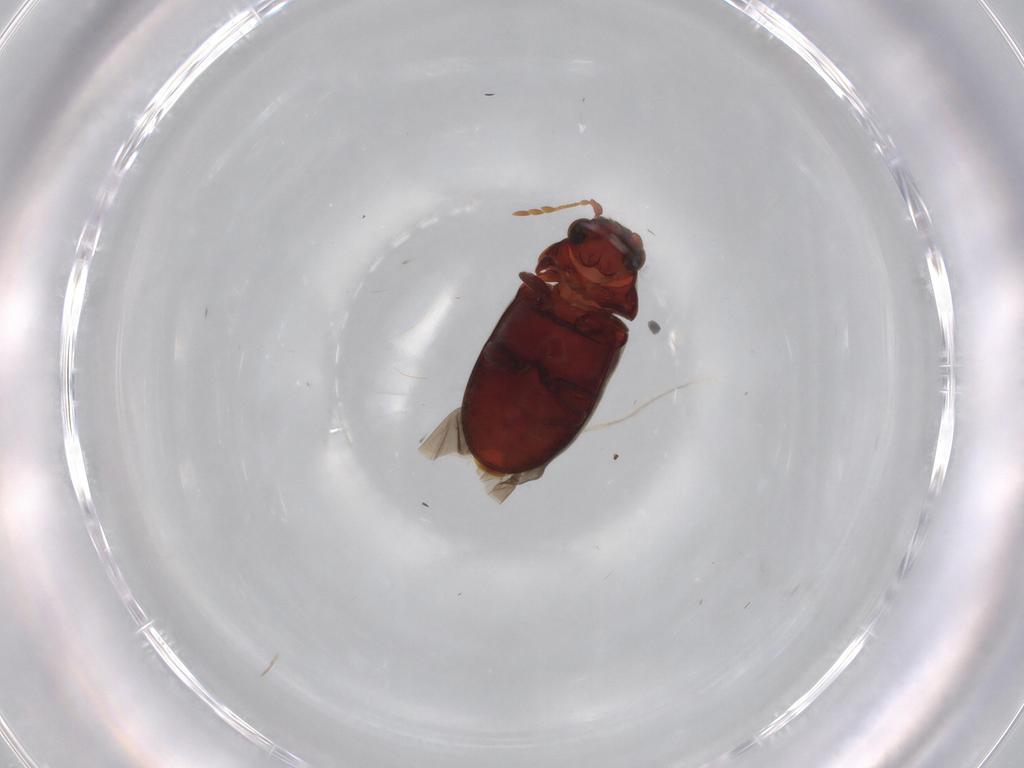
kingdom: Animalia
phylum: Arthropoda
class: Insecta
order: Coleoptera
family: Ptinidae
